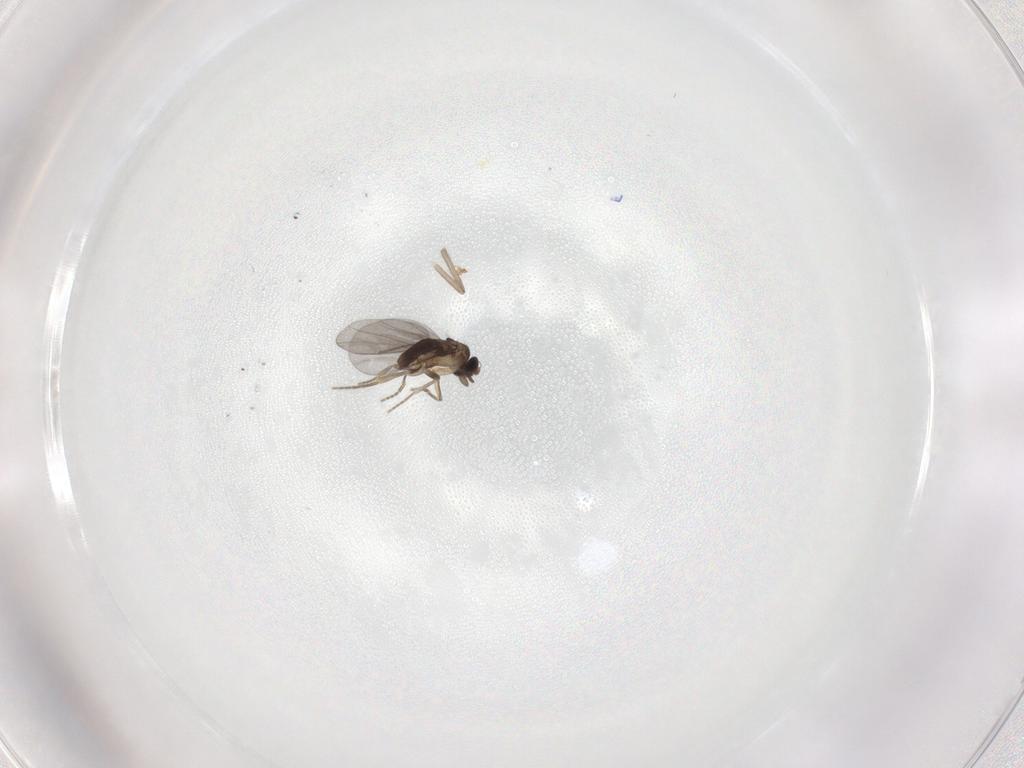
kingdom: Animalia
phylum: Arthropoda
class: Insecta
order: Diptera
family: Psychodidae
